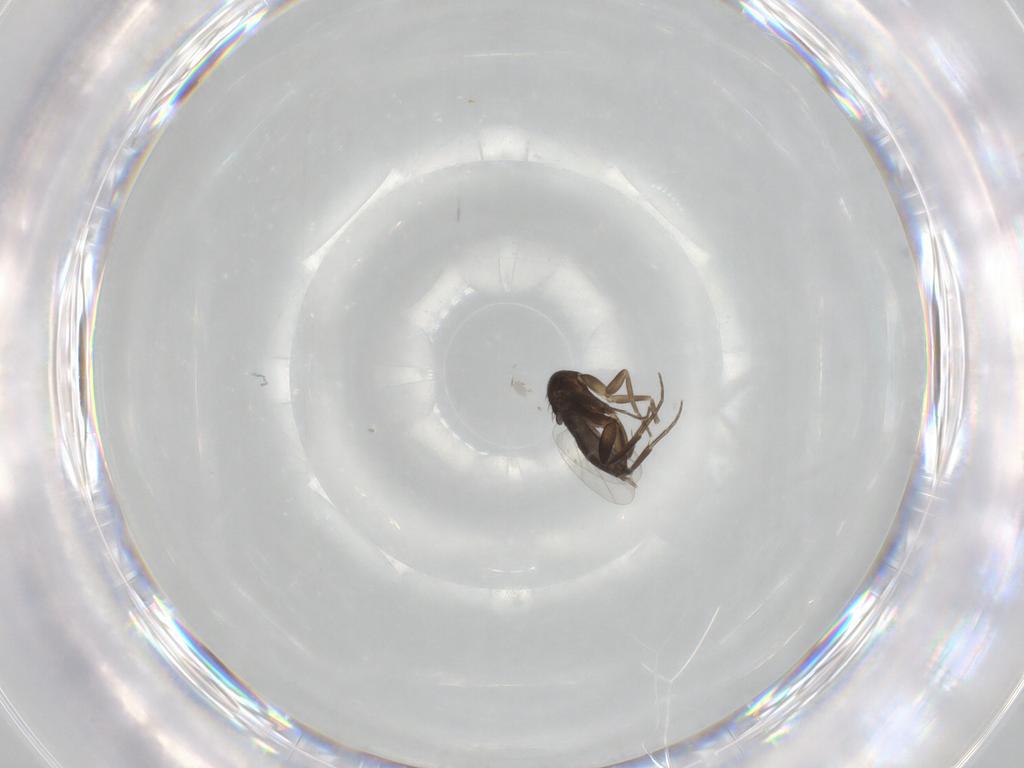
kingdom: Animalia
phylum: Arthropoda
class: Insecta
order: Diptera
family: Phoridae
